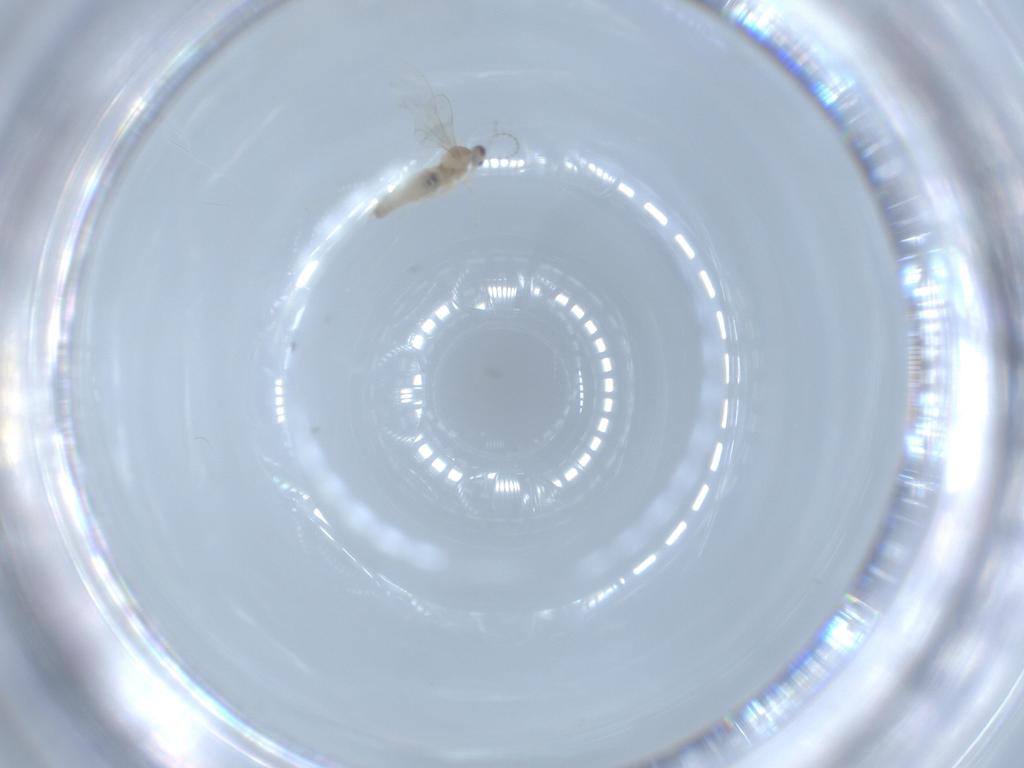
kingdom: Animalia
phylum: Arthropoda
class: Insecta
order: Diptera
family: Chironomidae
